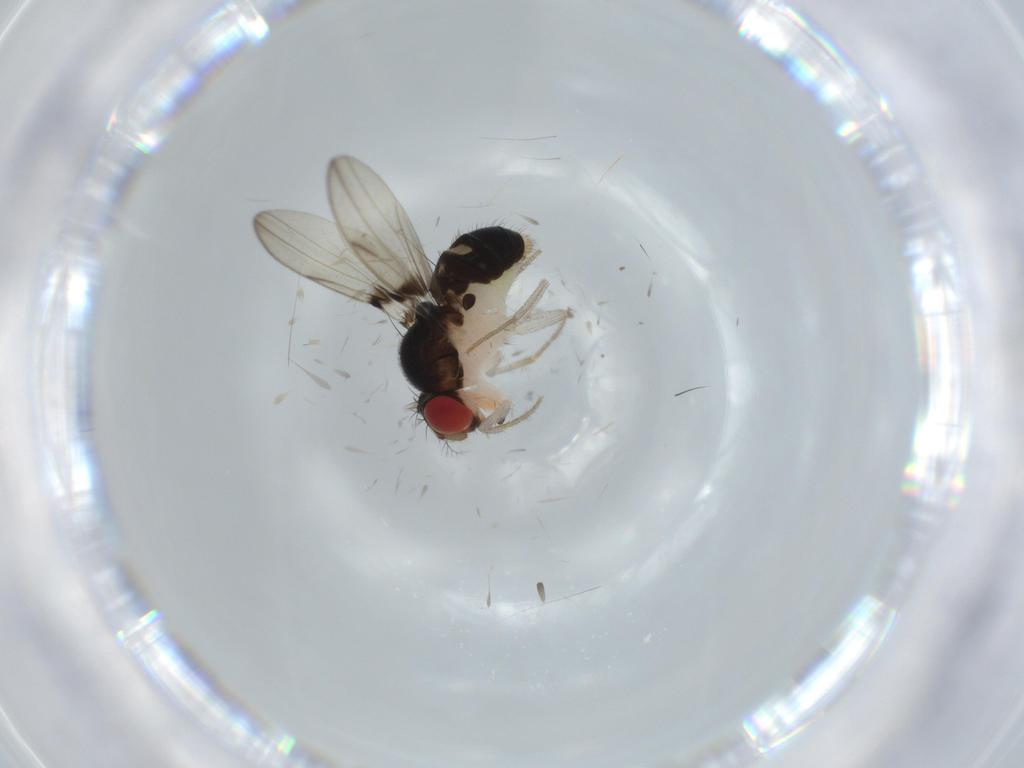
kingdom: Animalia
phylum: Arthropoda
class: Insecta
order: Diptera
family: Drosophilidae
